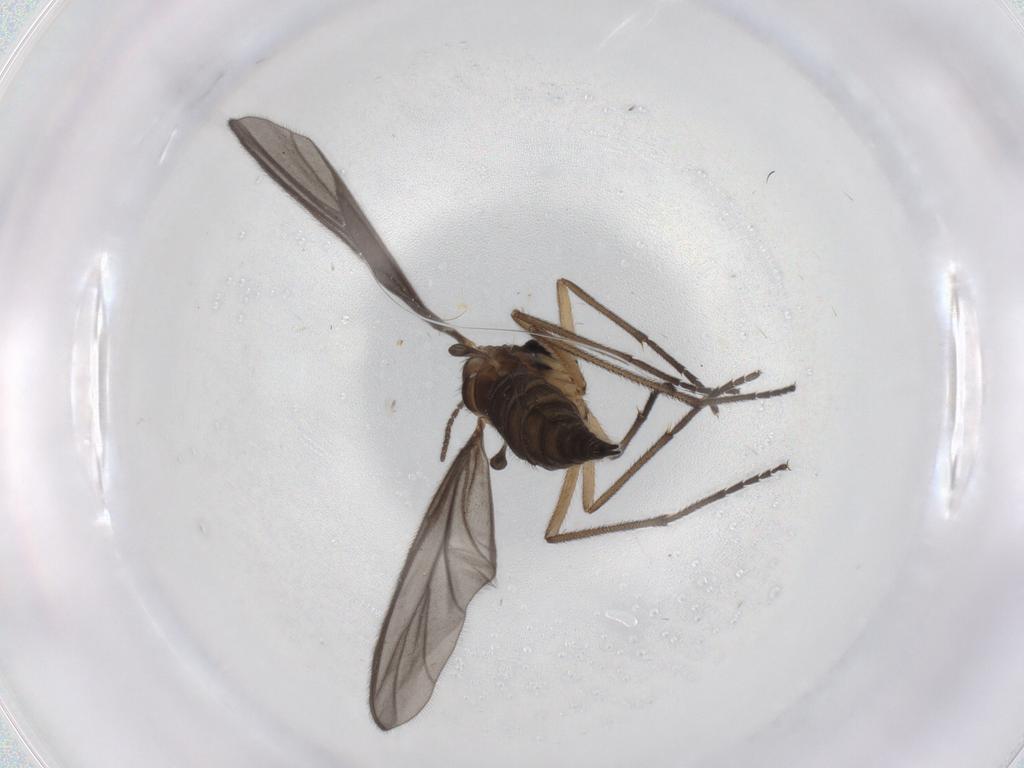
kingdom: Animalia
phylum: Arthropoda
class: Insecta
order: Diptera
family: Sciaridae
